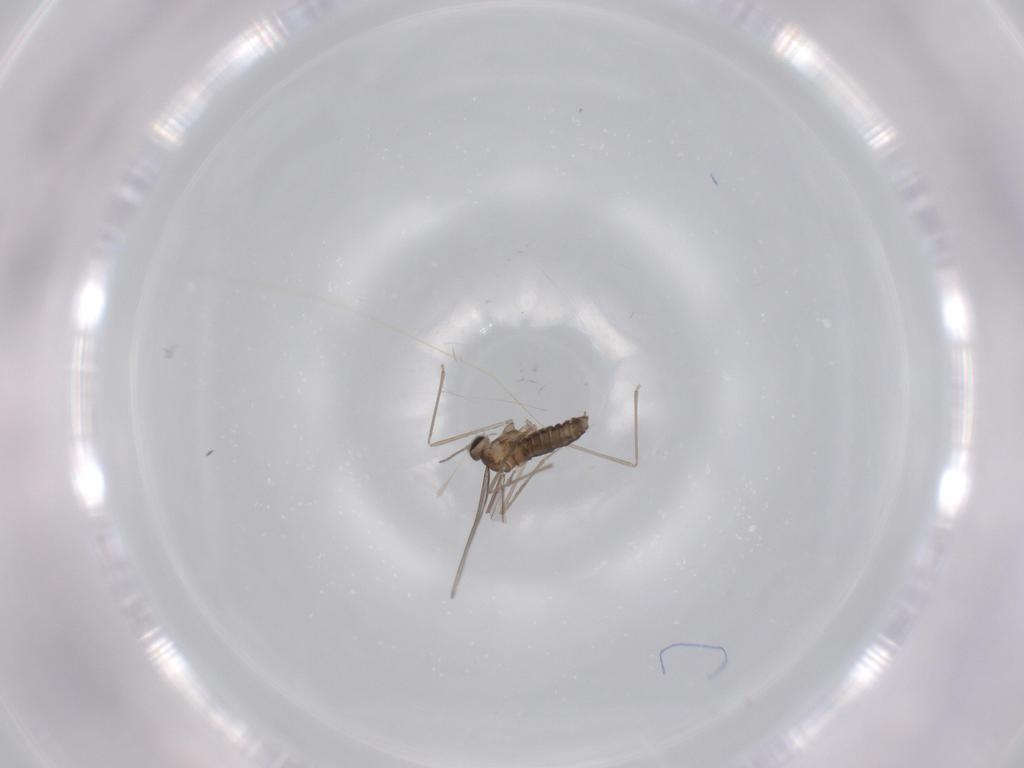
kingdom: Animalia
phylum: Arthropoda
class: Insecta
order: Diptera
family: Cecidomyiidae
